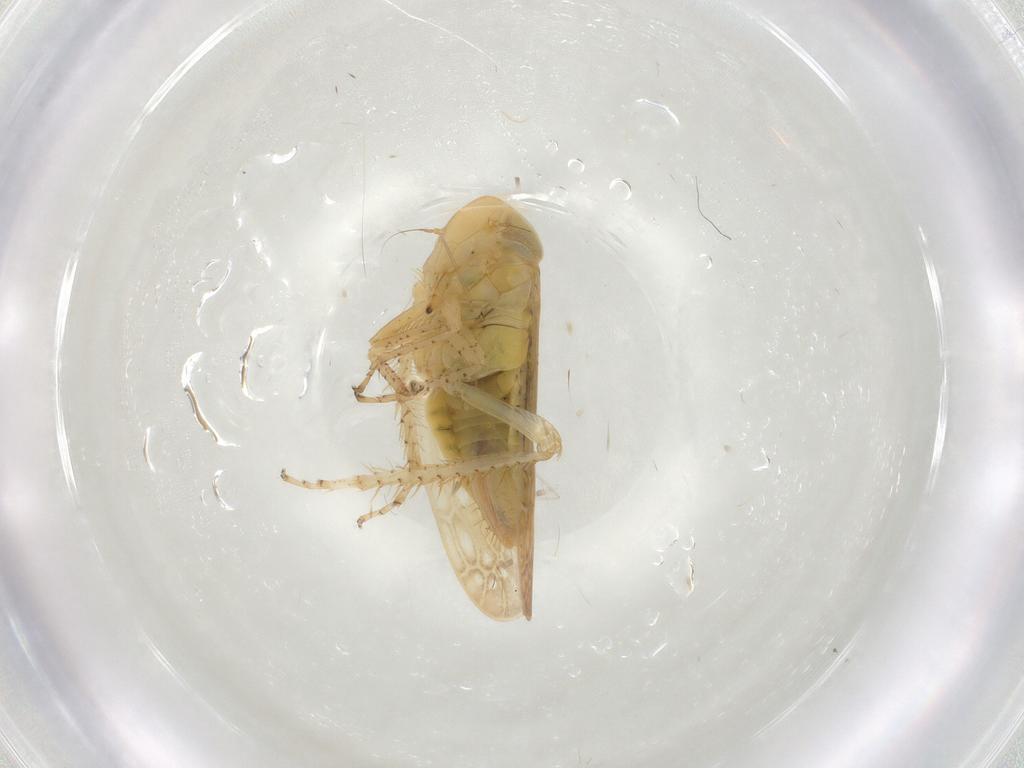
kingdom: Animalia
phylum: Arthropoda
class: Insecta
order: Hemiptera
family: Cicadellidae
